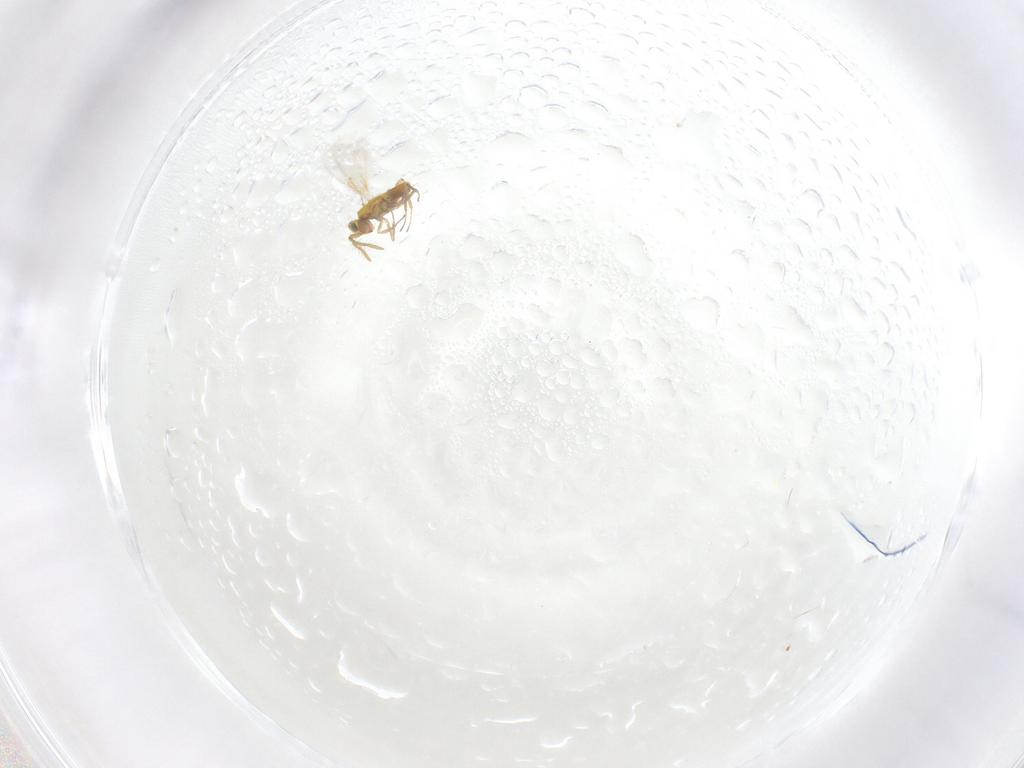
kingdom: Animalia
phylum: Arthropoda
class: Insecta
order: Hymenoptera
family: Aphelinidae
